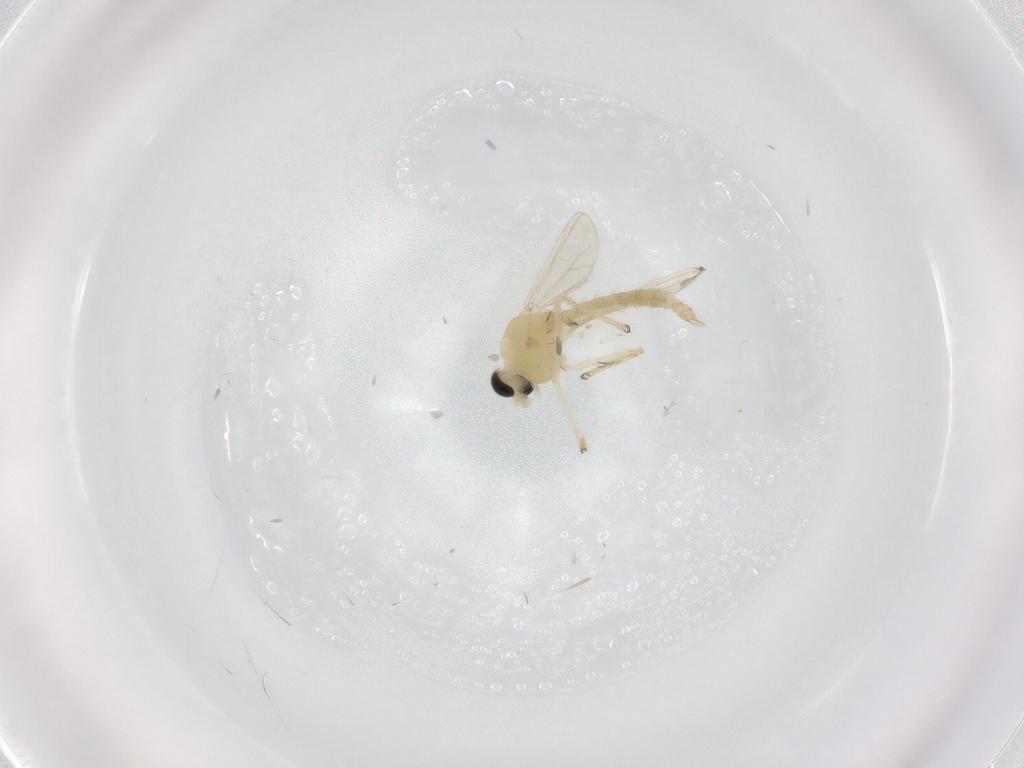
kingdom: Animalia
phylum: Arthropoda
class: Insecta
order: Diptera
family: Chironomidae
